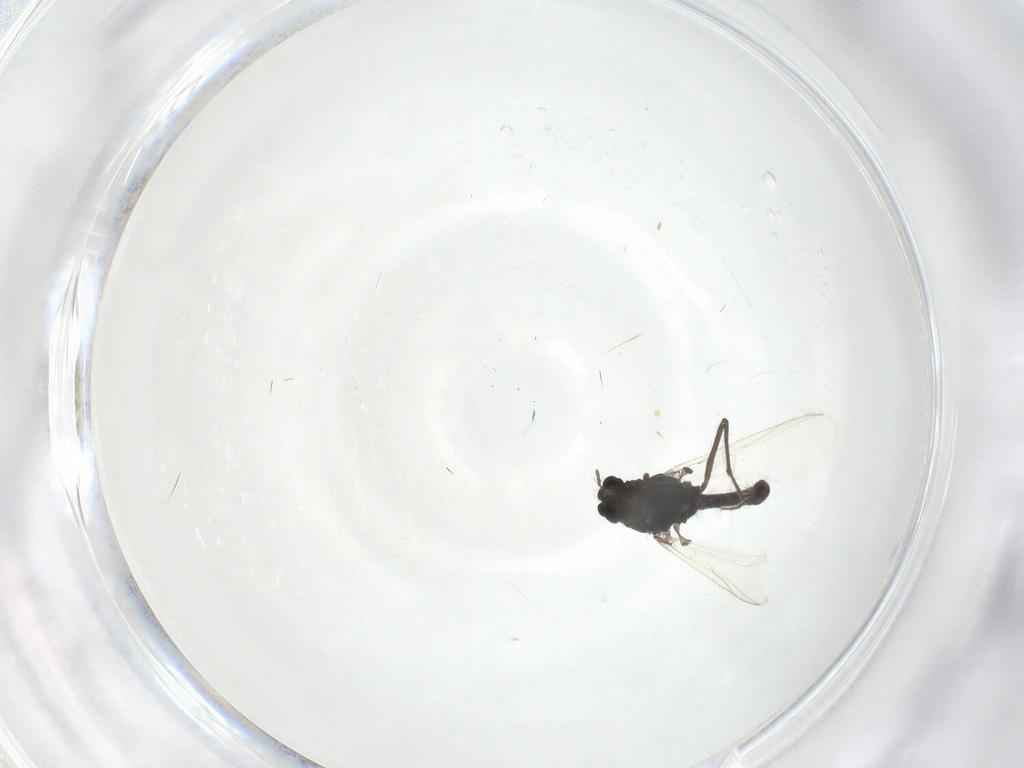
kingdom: Animalia
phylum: Arthropoda
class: Insecta
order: Diptera
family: Chironomidae
